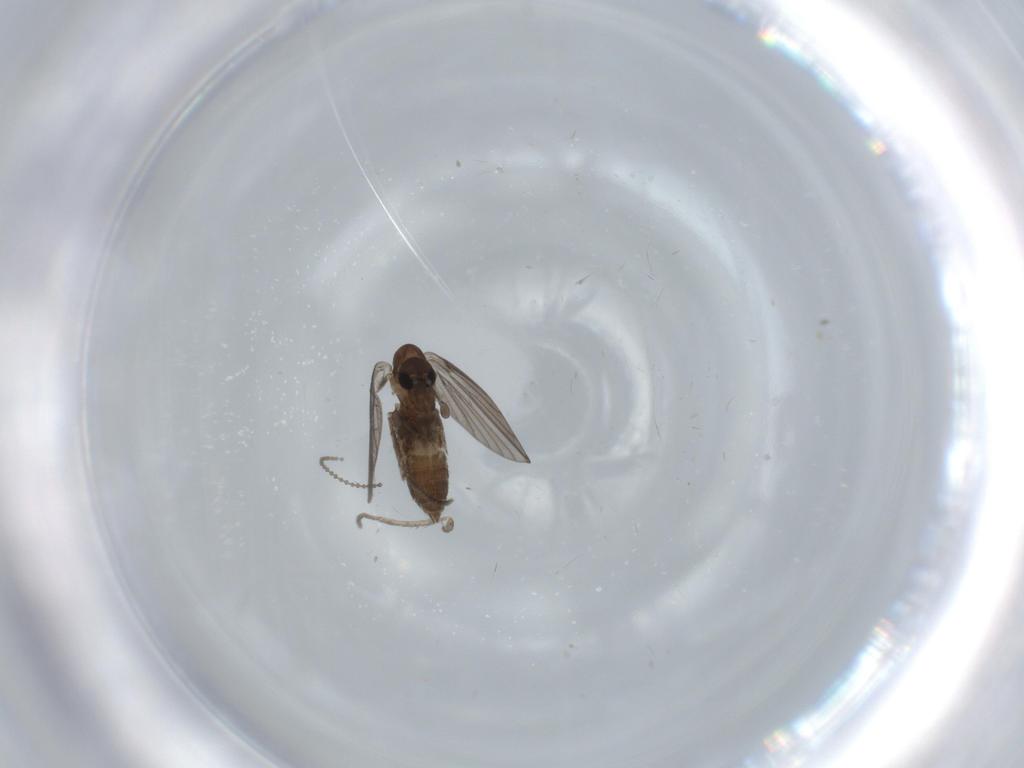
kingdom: Animalia
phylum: Arthropoda
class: Insecta
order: Diptera
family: Psychodidae
